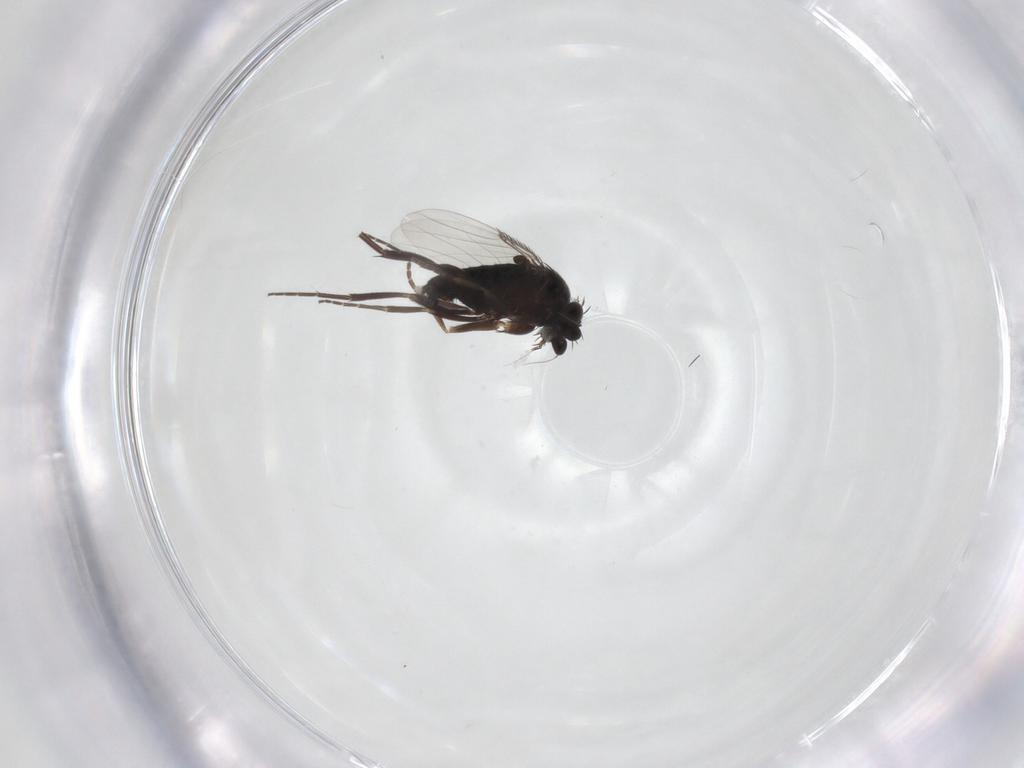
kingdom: Animalia
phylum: Arthropoda
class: Insecta
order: Diptera
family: Phoridae
